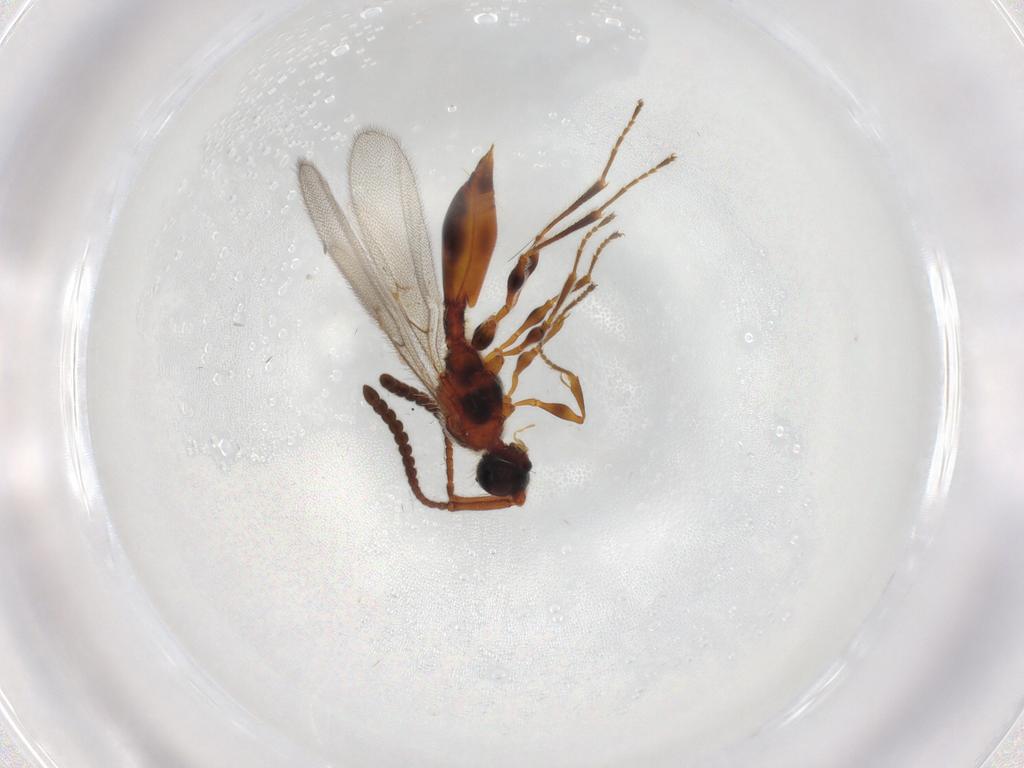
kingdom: Animalia
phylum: Arthropoda
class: Insecta
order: Hymenoptera
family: Diapriidae
